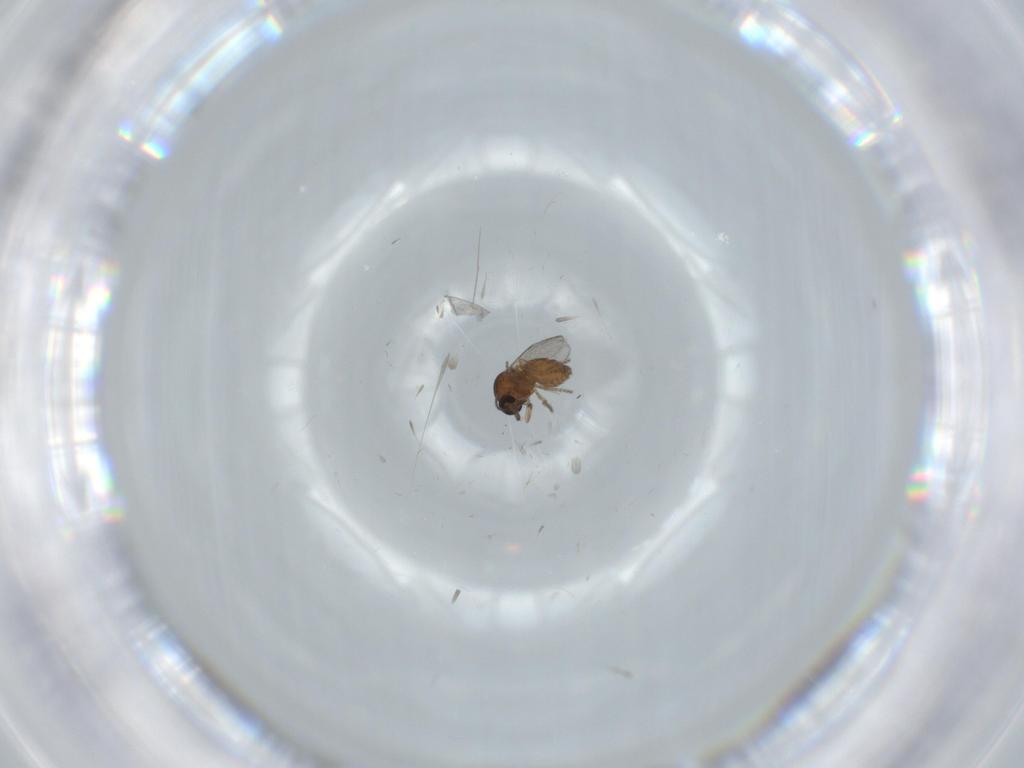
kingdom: Animalia
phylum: Arthropoda
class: Insecta
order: Diptera
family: Ceratopogonidae
